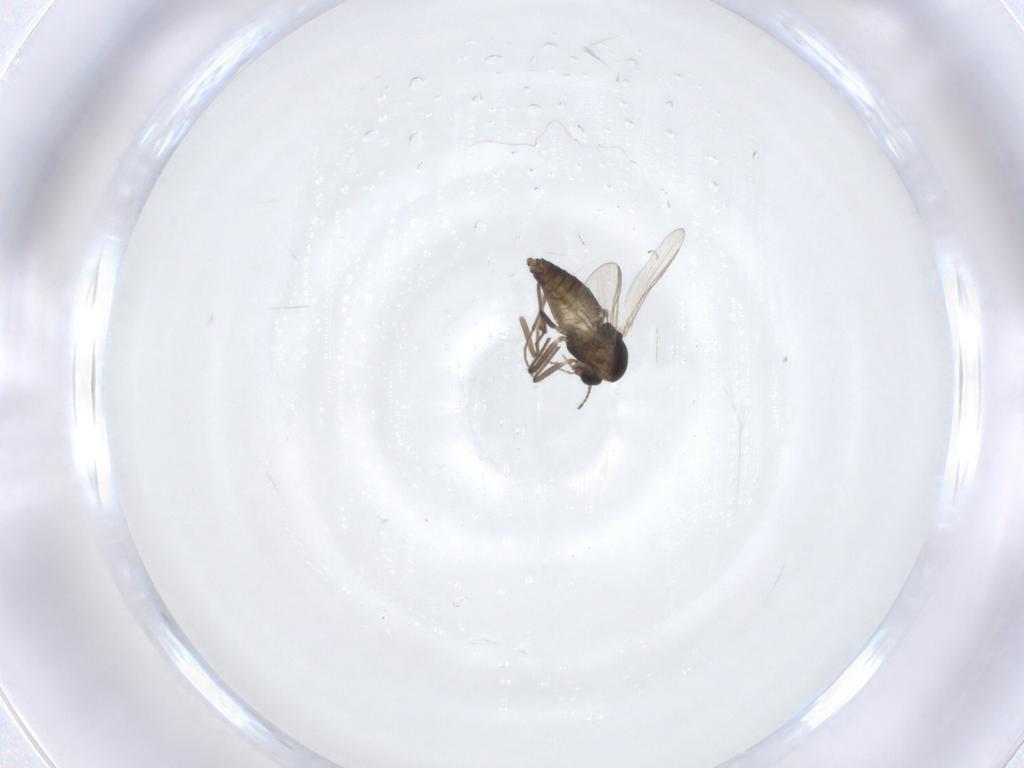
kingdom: Animalia
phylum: Arthropoda
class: Insecta
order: Diptera
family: Chironomidae
